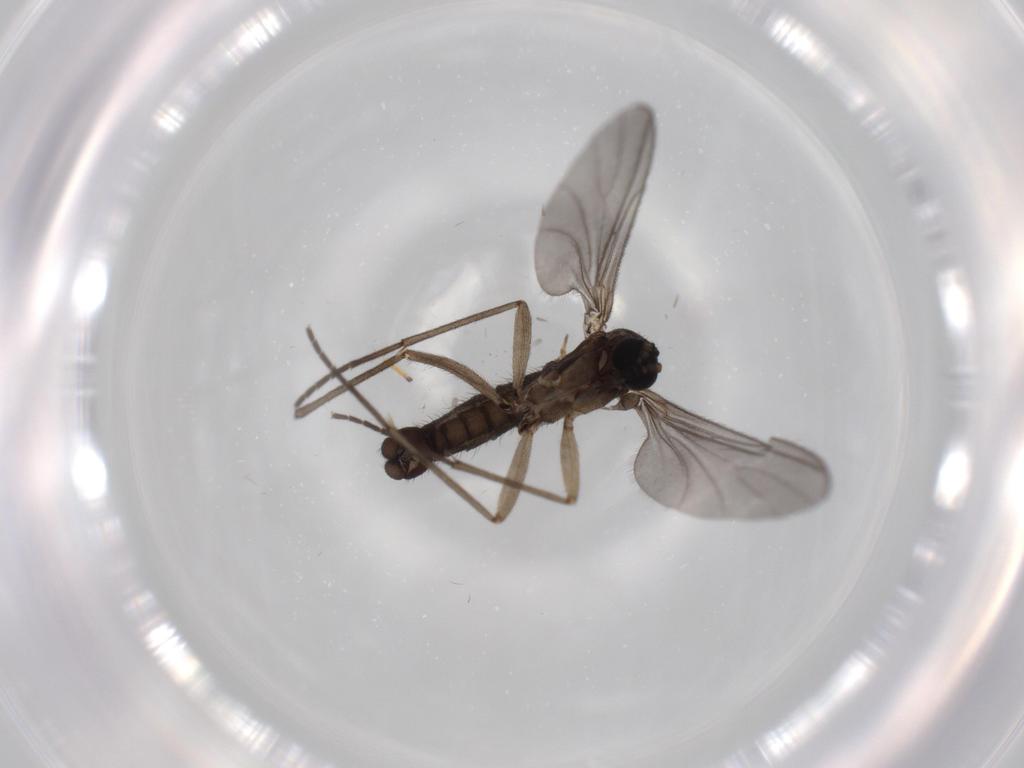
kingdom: Animalia
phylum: Arthropoda
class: Insecta
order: Diptera
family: Sciaridae
